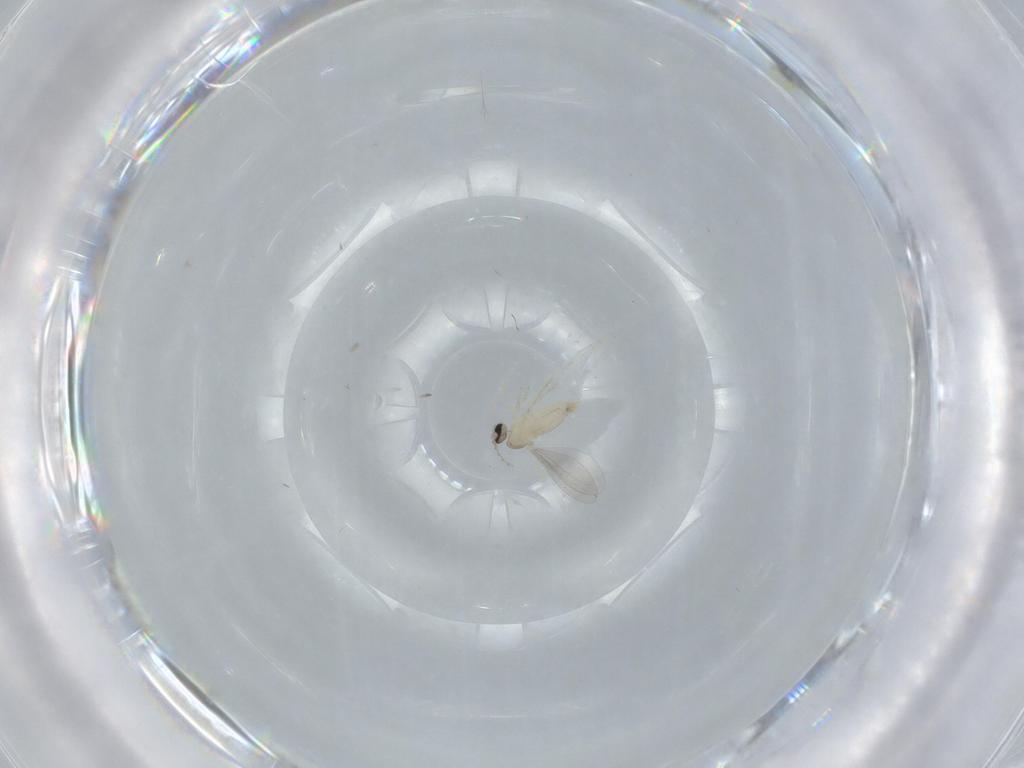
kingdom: Animalia
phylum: Arthropoda
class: Insecta
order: Diptera
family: Cecidomyiidae
